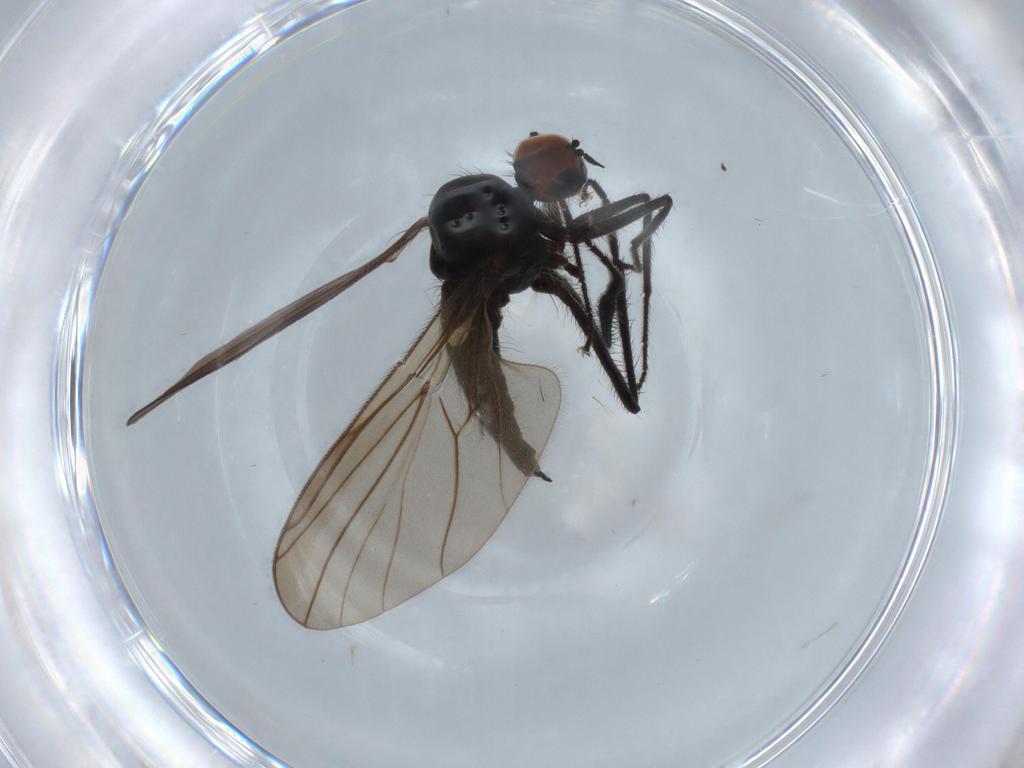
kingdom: Animalia
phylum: Arthropoda
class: Insecta
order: Diptera
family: Hybotidae
